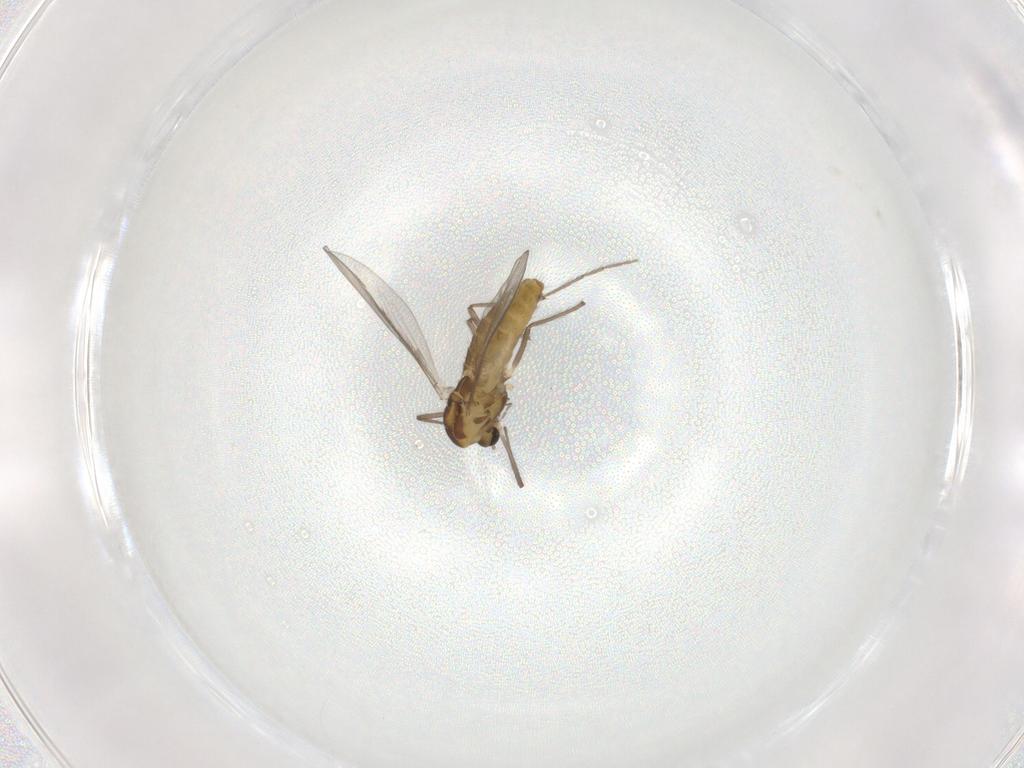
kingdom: Animalia
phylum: Arthropoda
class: Insecta
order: Diptera
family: Chironomidae
